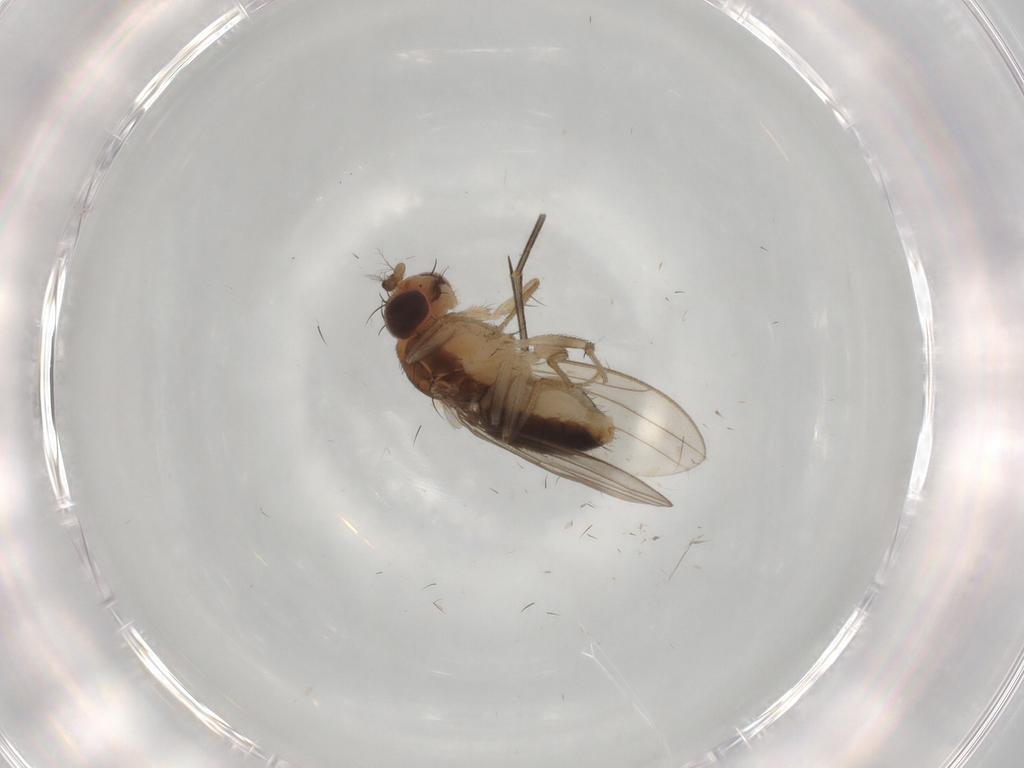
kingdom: Animalia
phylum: Arthropoda
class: Insecta
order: Diptera
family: Drosophilidae
